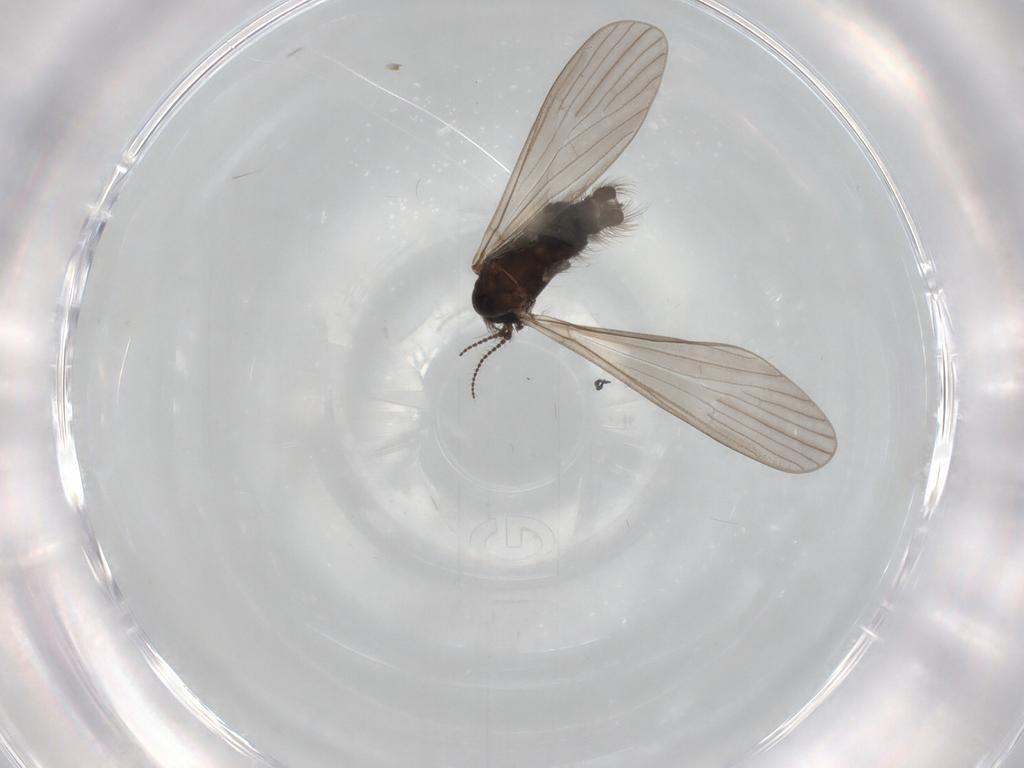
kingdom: Animalia
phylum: Arthropoda
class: Insecta
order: Diptera
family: Limoniidae
